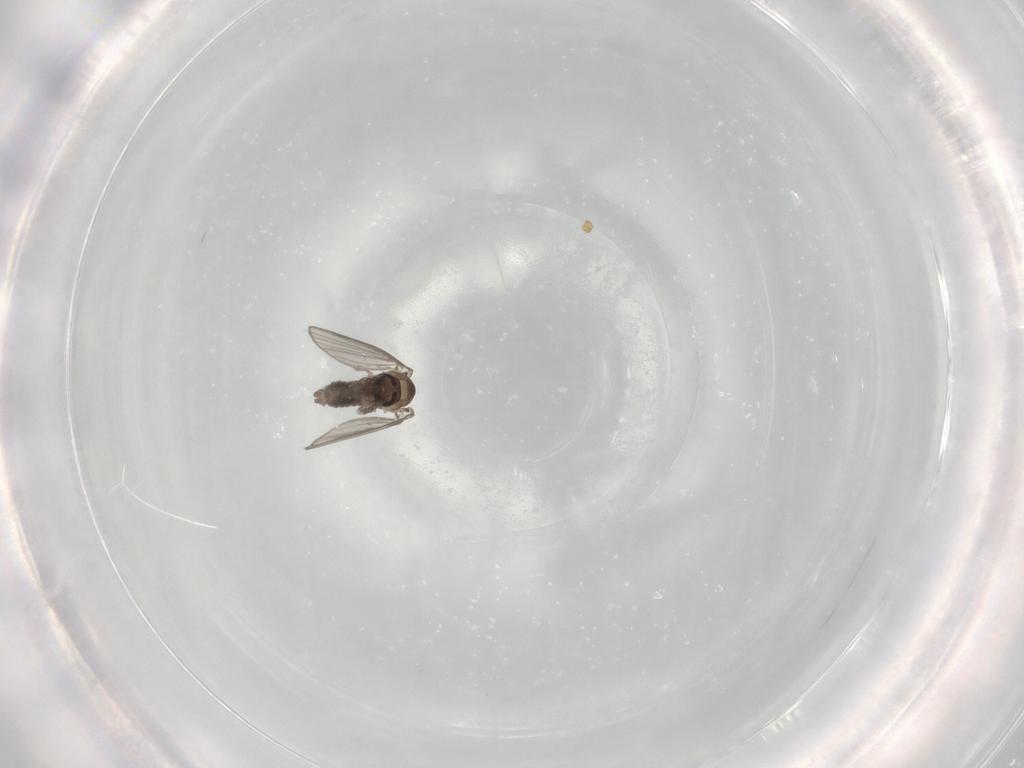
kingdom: Animalia
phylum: Arthropoda
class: Insecta
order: Diptera
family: Psychodidae
